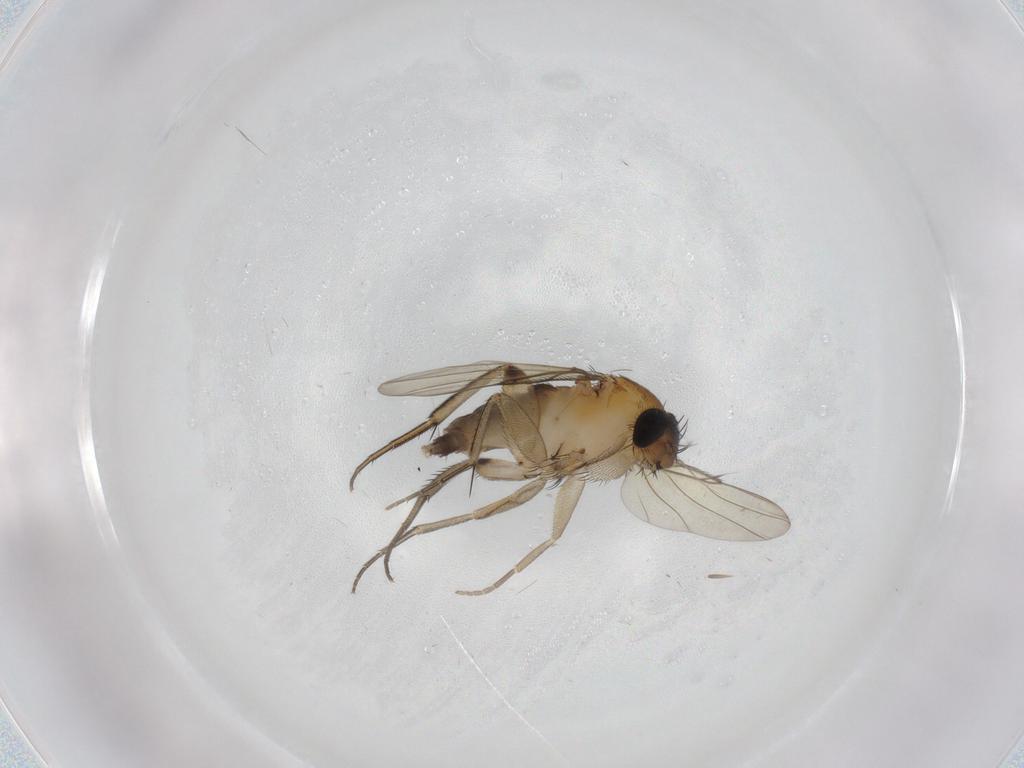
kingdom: Animalia
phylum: Arthropoda
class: Insecta
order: Diptera
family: Phoridae
